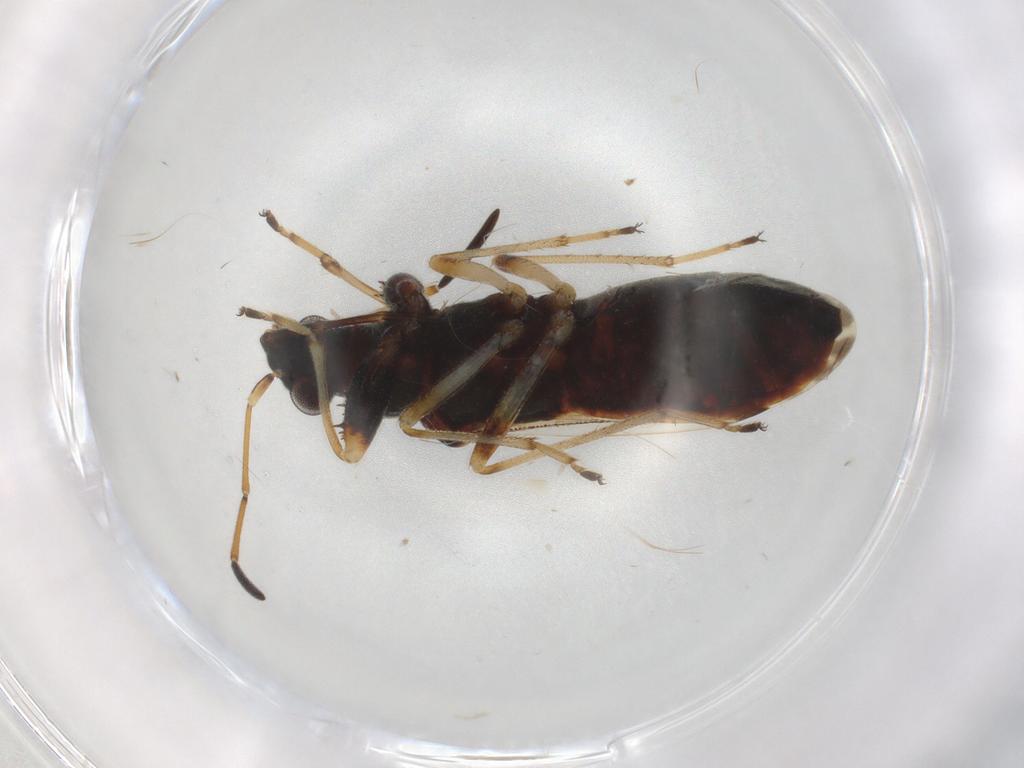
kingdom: Animalia
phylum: Arthropoda
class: Insecta
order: Hemiptera
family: Rhyparochromidae
